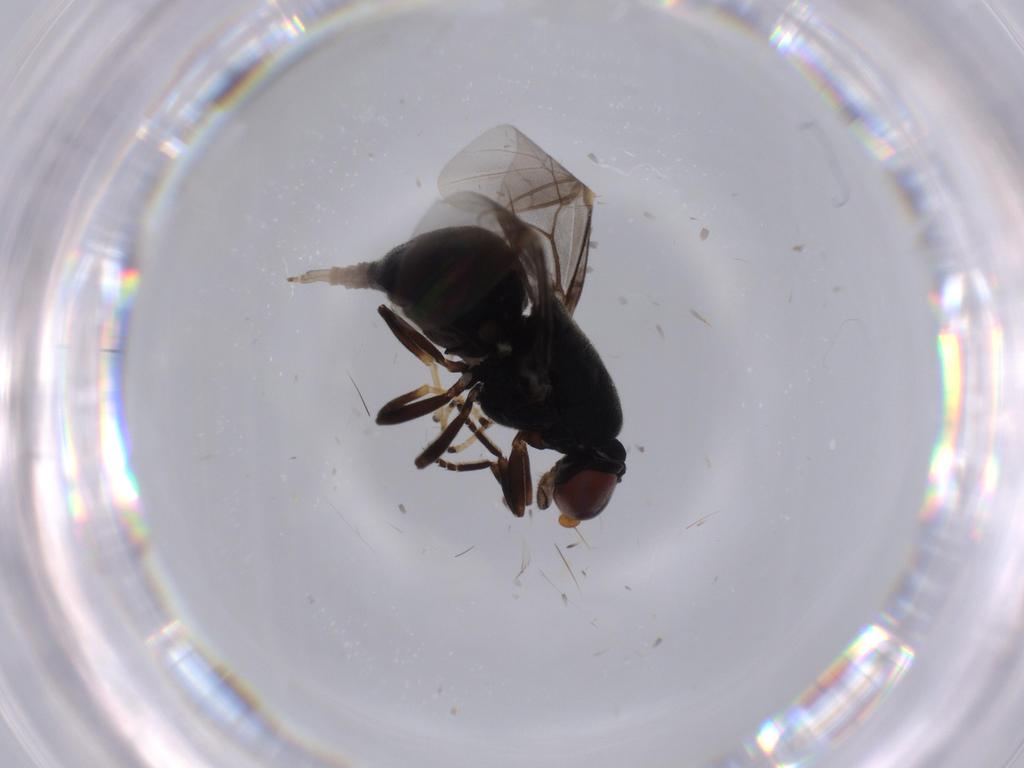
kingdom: Animalia
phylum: Arthropoda
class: Insecta
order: Diptera
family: Stratiomyidae
